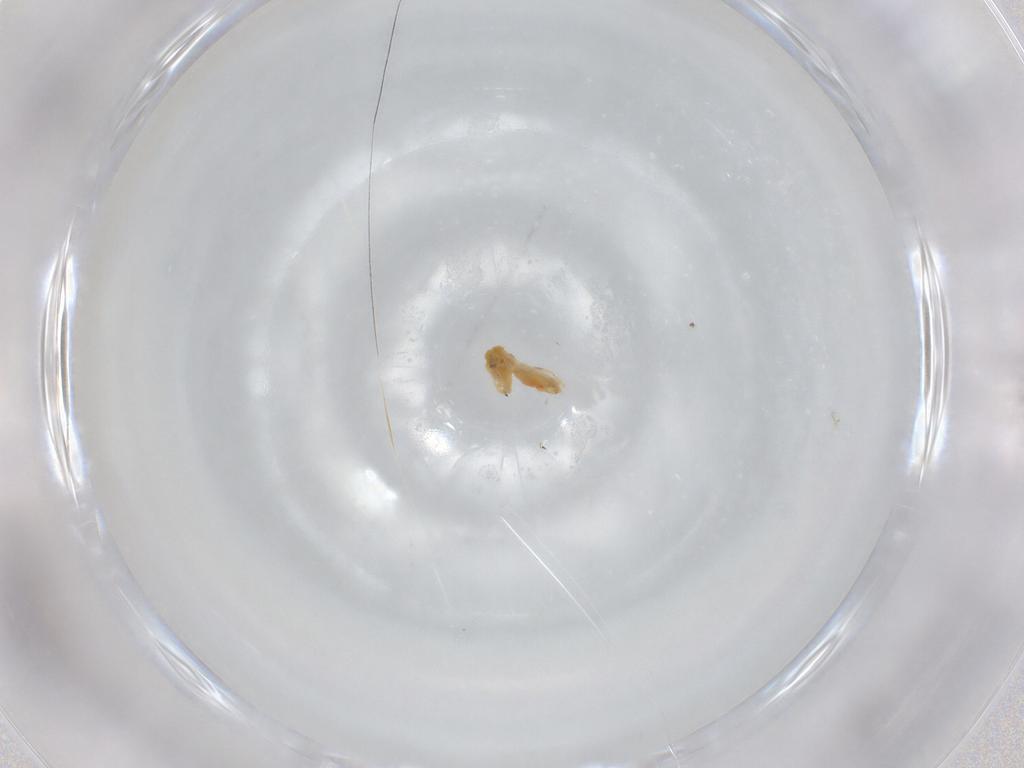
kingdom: Animalia
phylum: Arthropoda
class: Insecta
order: Hemiptera
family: Aleyrodidae
